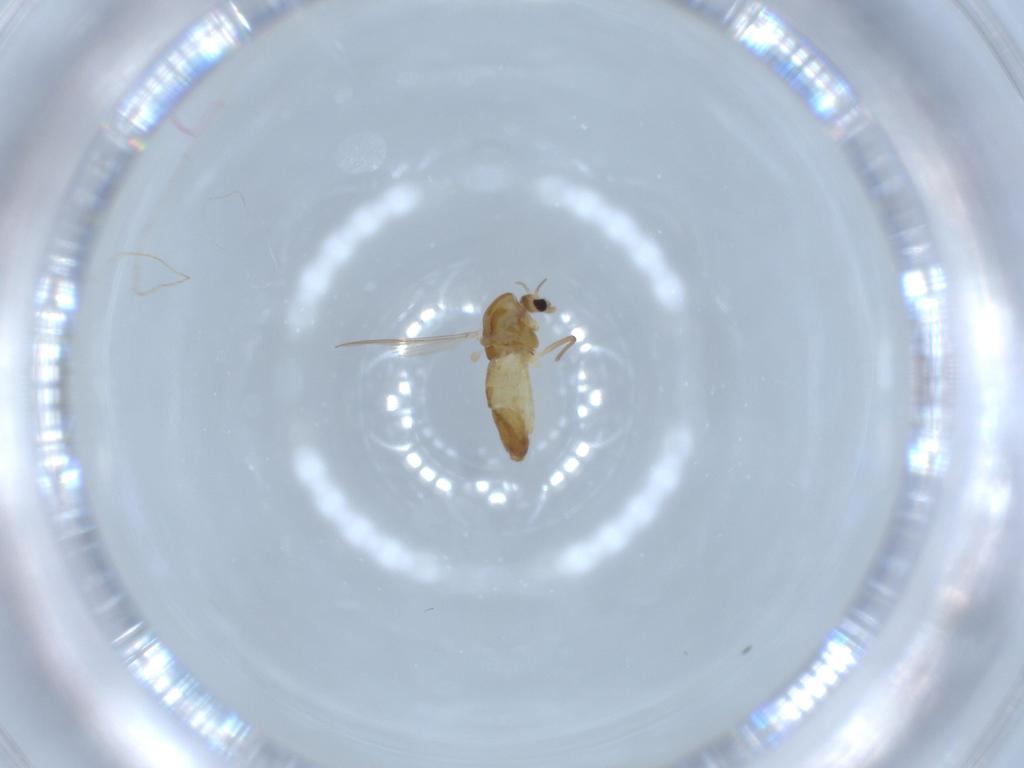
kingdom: Animalia
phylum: Arthropoda
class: Insecta
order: Diptera
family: Chironomidae
